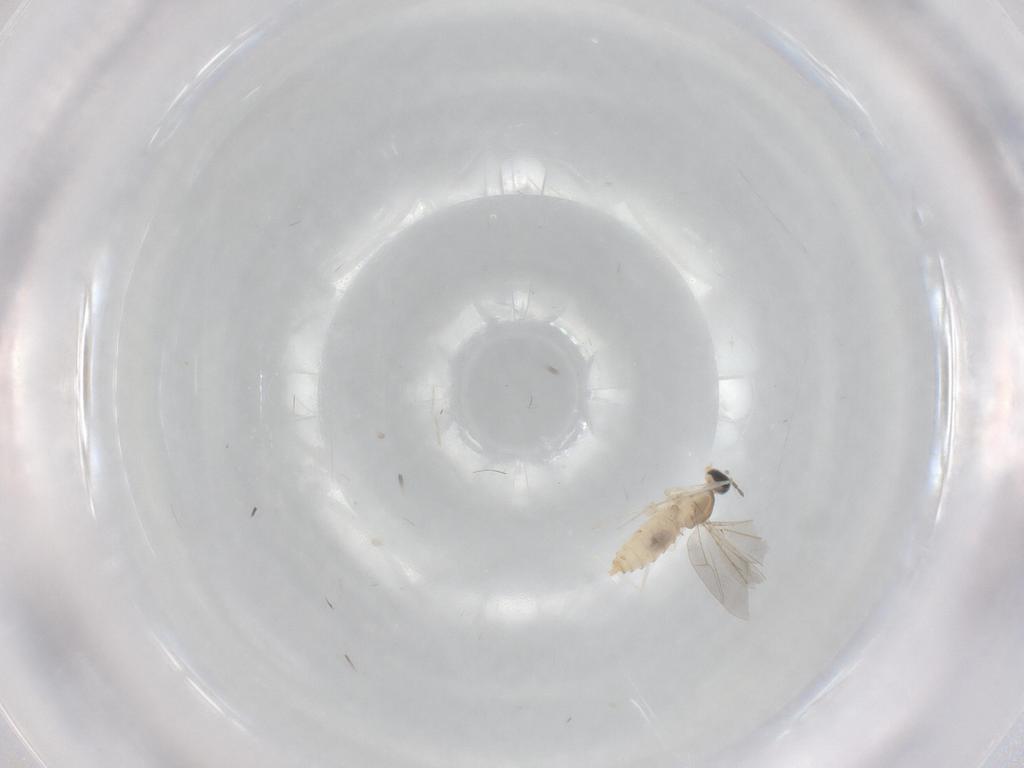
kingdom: Animalia
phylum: Arthropoda
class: Insecta
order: Diptera
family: Cecidomyiidae
